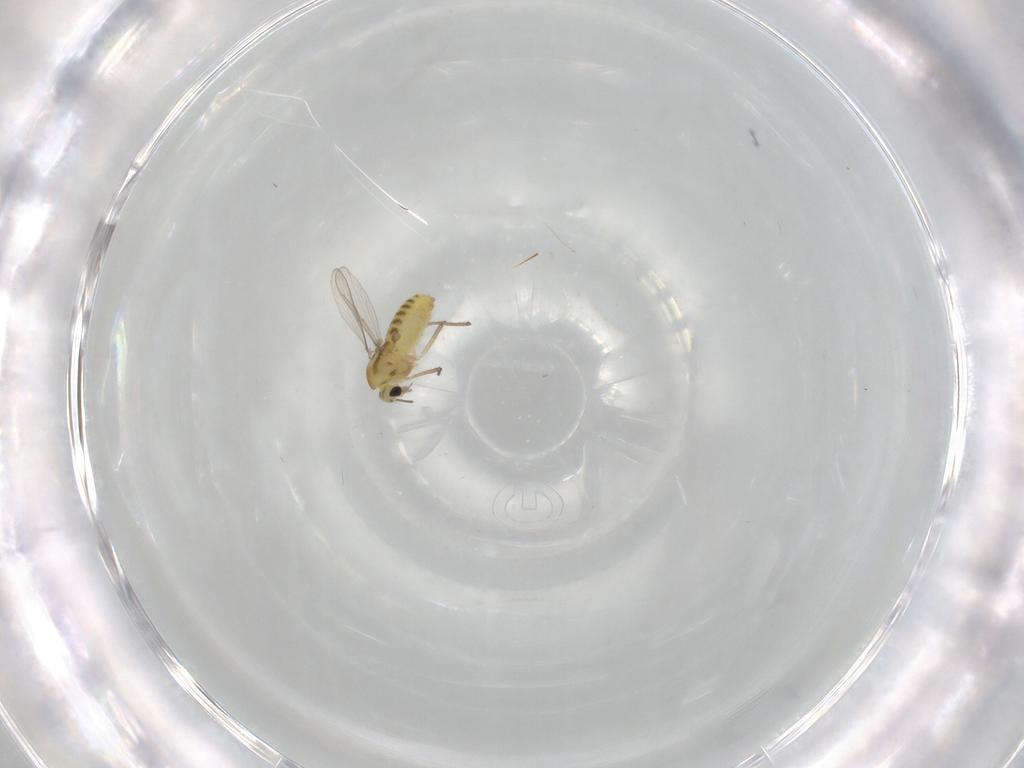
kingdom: Animalia
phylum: Arthropoda
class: Insecta
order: Diptera
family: Chironomidae
